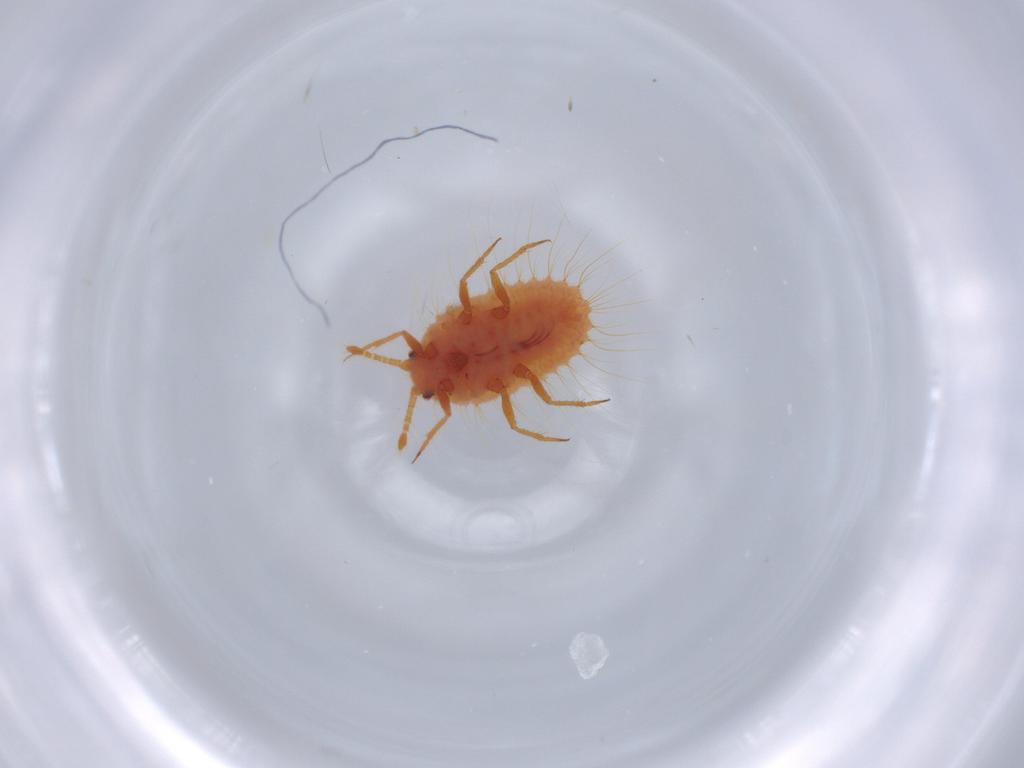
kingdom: Animalia
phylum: Arthropoda
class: Insecta
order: Hemiptera
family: Coccoidea_incertae_sedis
